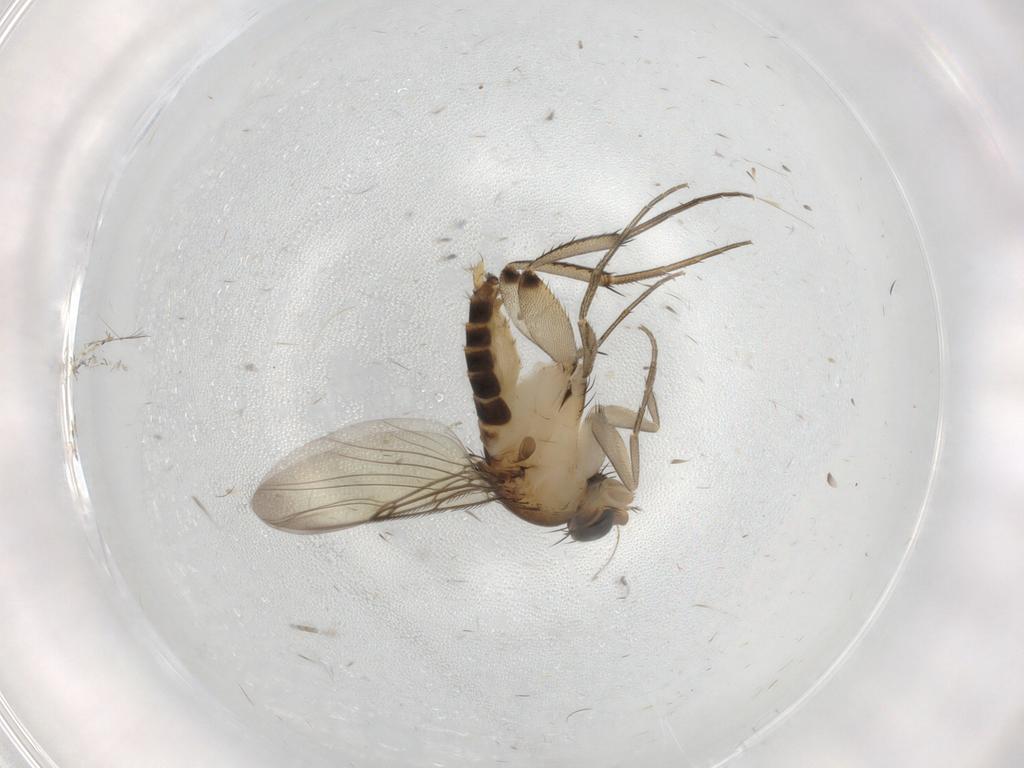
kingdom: Animalia
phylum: Arthropoda
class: Insecta
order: Diptera
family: Phoridae
